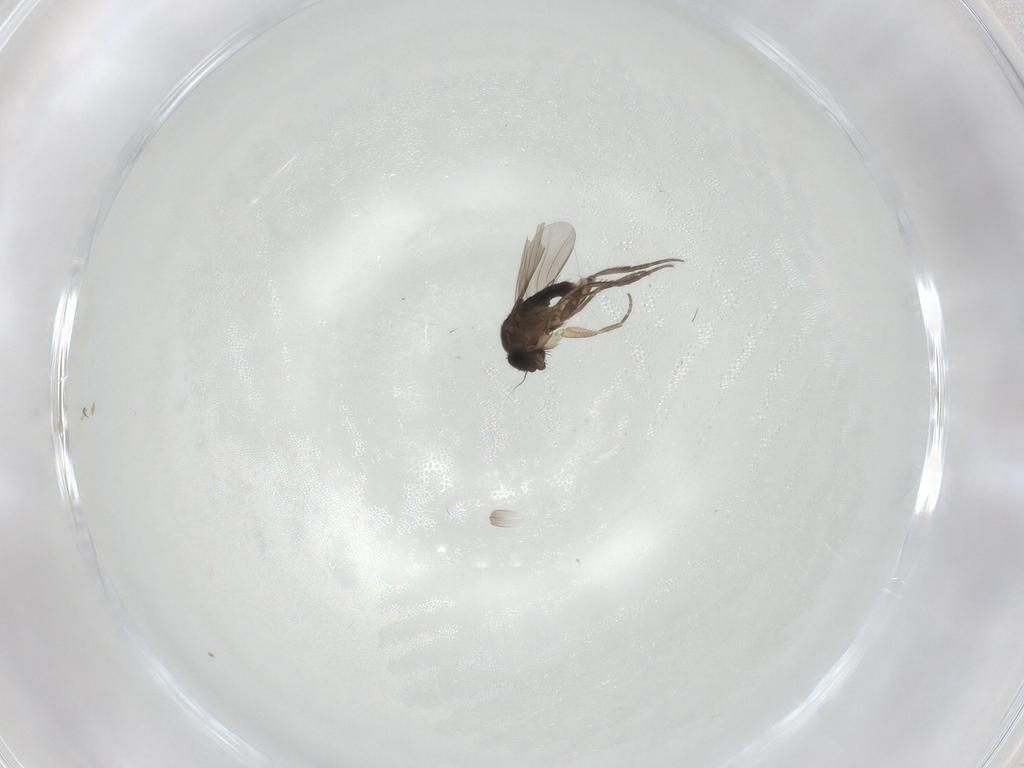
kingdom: Animalia
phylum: Arthropoda
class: Insecta
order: Diptera
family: Phoridae
